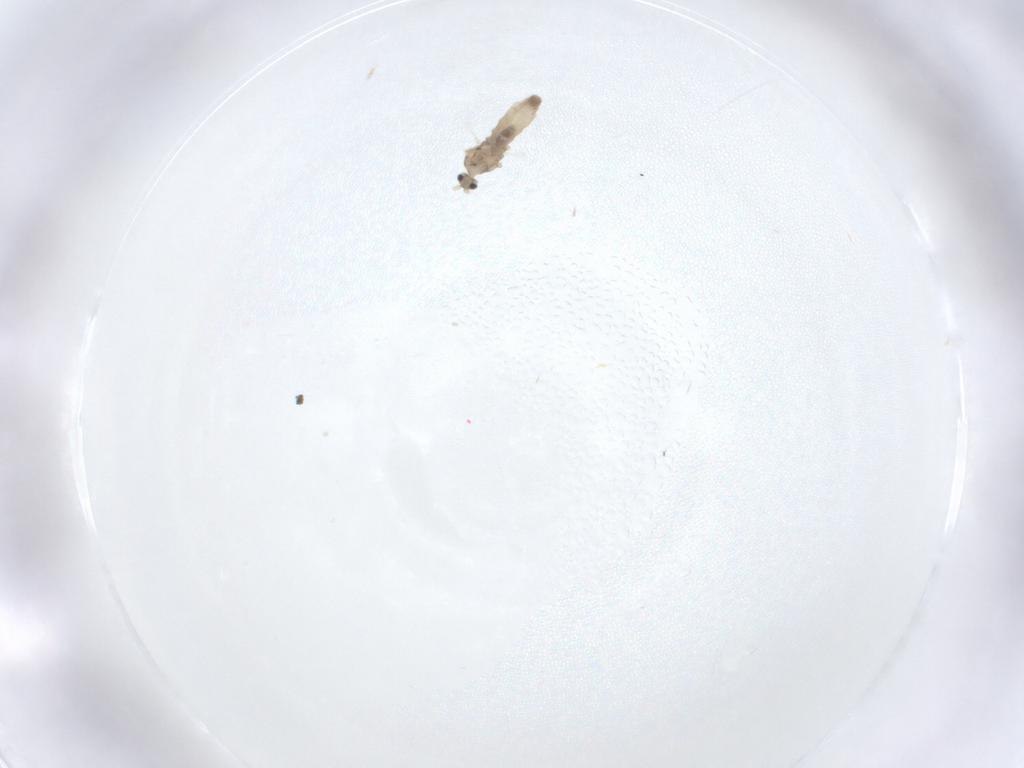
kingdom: Animalia
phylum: Arthropoda
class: Insecta
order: Diptera
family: Cecidomyiidae
